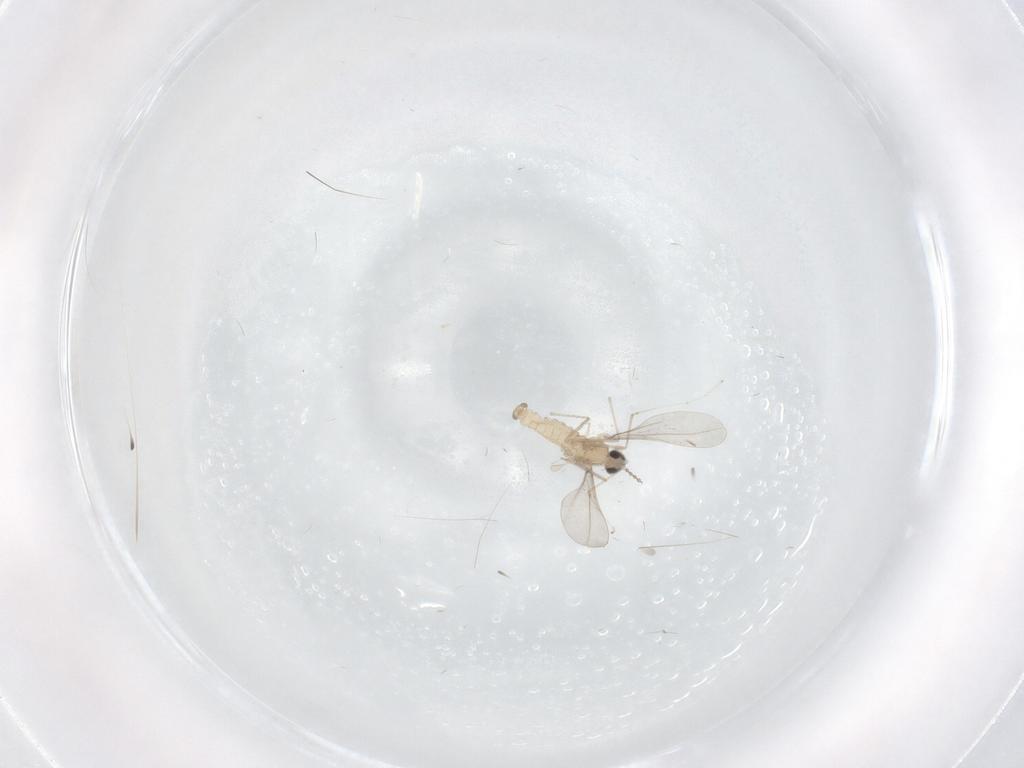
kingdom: Animalia
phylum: Arthropoda
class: Insecta
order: Diptera
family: Cecidomyiidae
